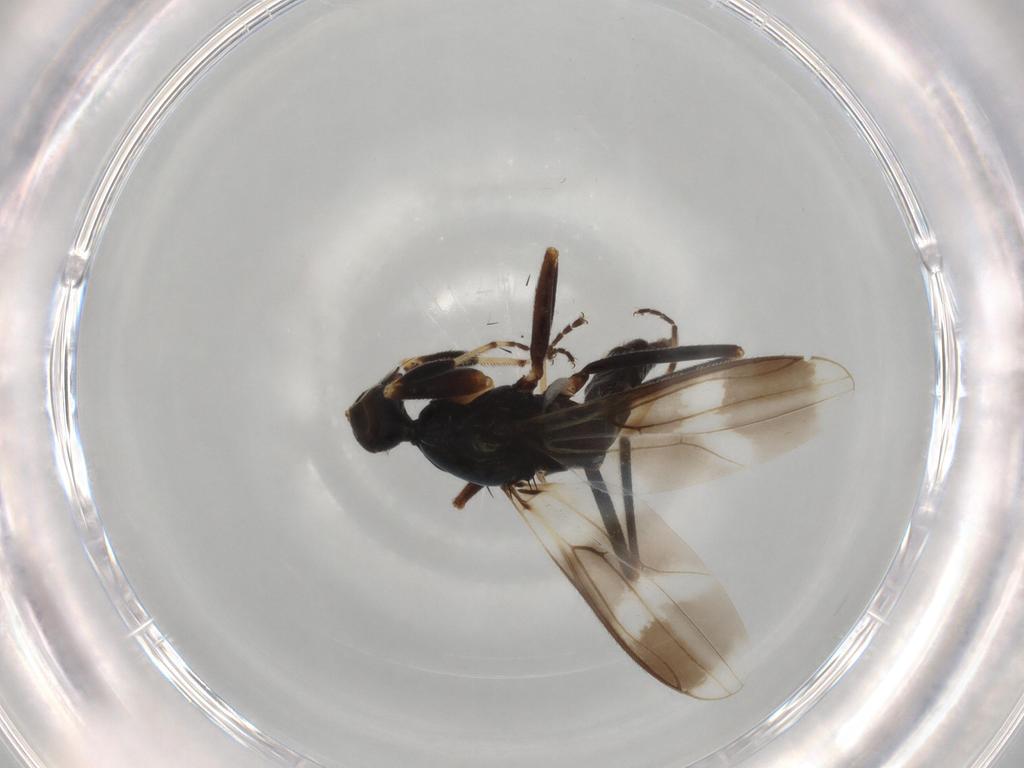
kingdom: Animalia
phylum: Arthropoda
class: Insecta
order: Diptera
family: Hybotidae
